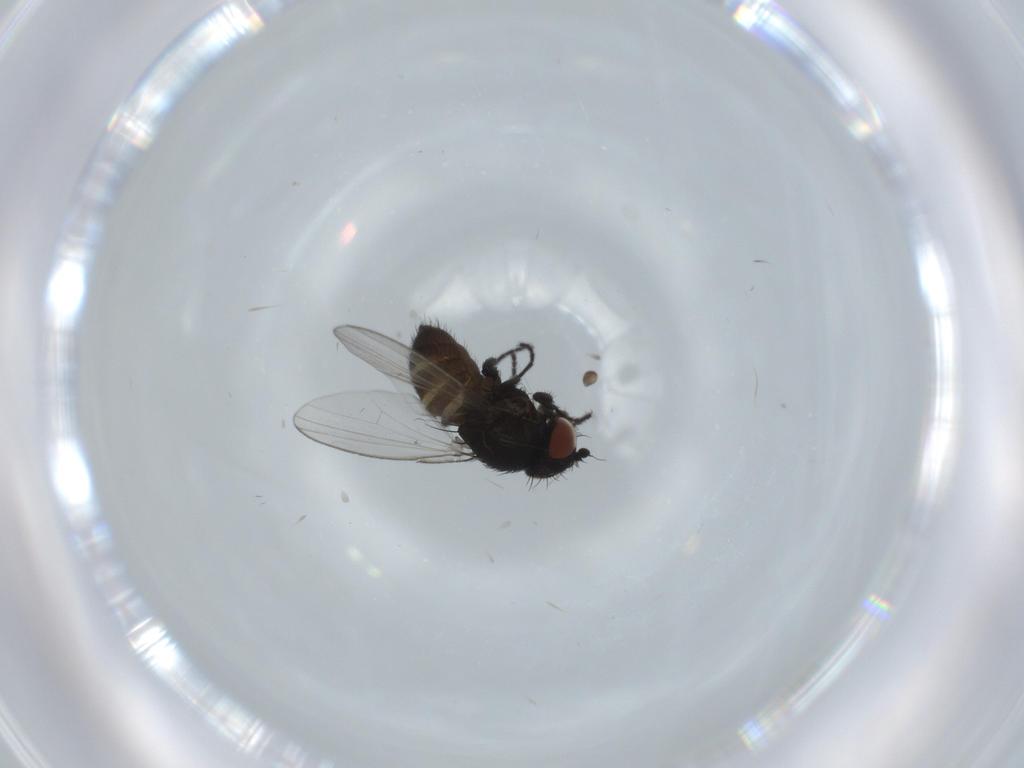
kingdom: Animalia
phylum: Arthropoda
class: Insecta
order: Diptera
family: Milichiidae
